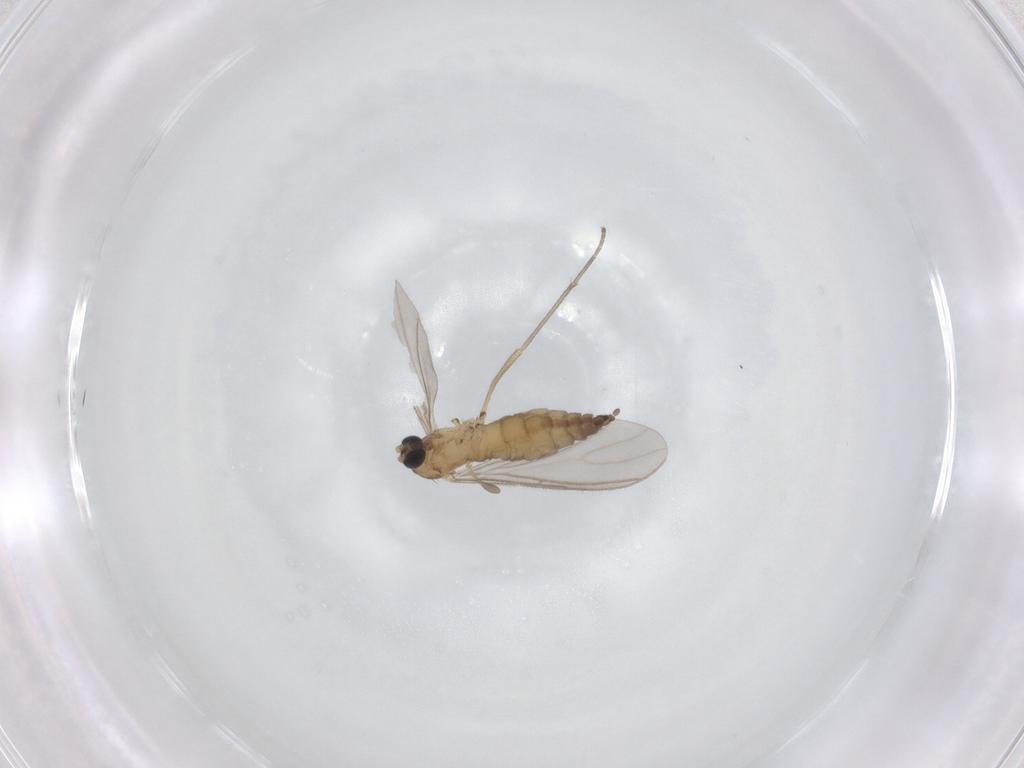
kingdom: Animalia
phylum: Arthropoda
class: Insecta
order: Diptera
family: Sciaridae
